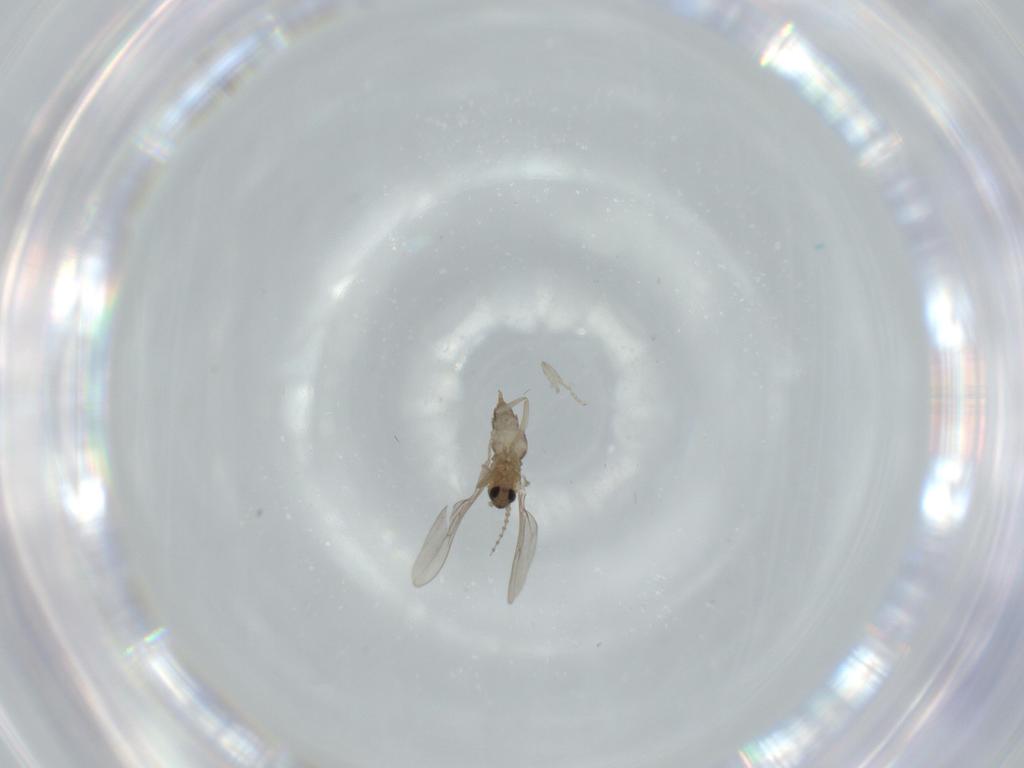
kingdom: Animalia
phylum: Arthropoda
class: Insecta
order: Diptera
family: Cecidomyiidae
